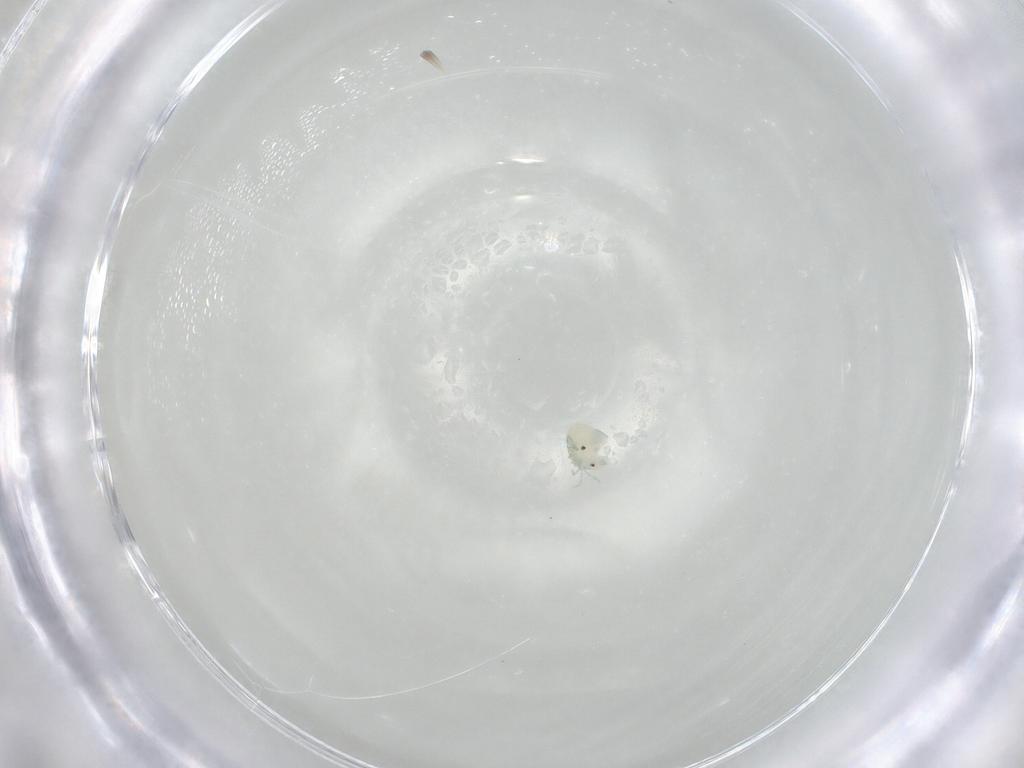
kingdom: Animalia
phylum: Arthropoda
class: Arachnida
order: Trombidiformes
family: Arrenuridae
